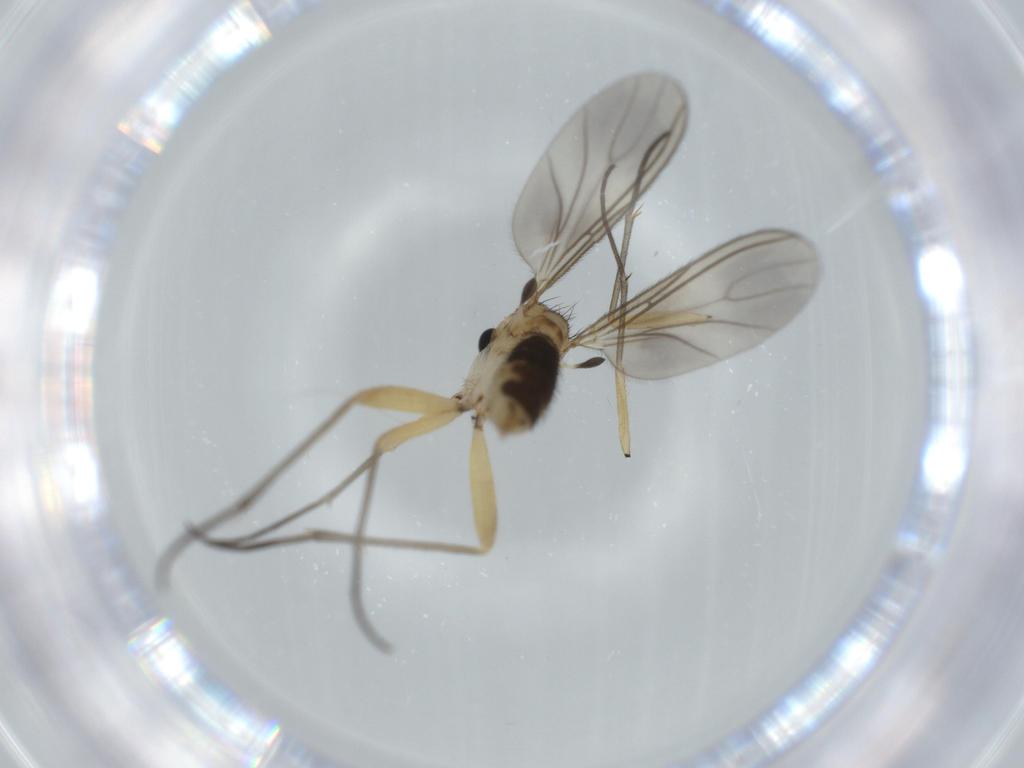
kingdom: Animalia
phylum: Arthropoda
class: Insecta
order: Diptera
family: Sciaridae
